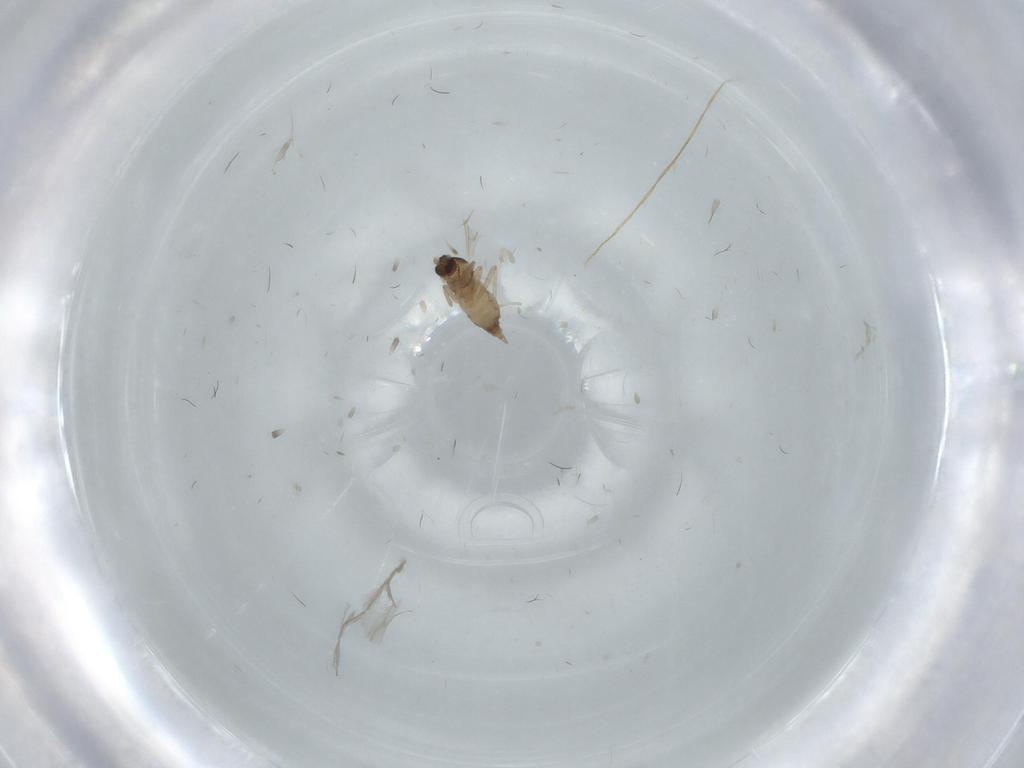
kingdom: Animalia
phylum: Arthropoda
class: Insecta
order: Diptera
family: Cecidomyiidae
